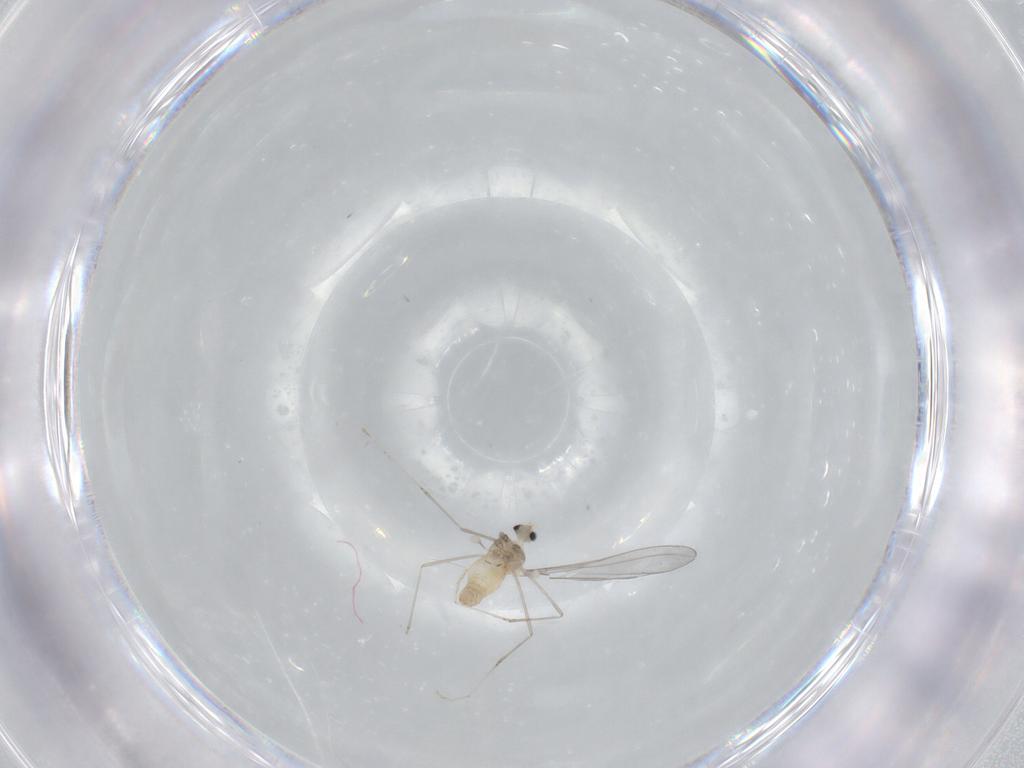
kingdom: Animalia
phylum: Arthropoda
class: Insecta
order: Diptera
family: Cecidomyiidae
